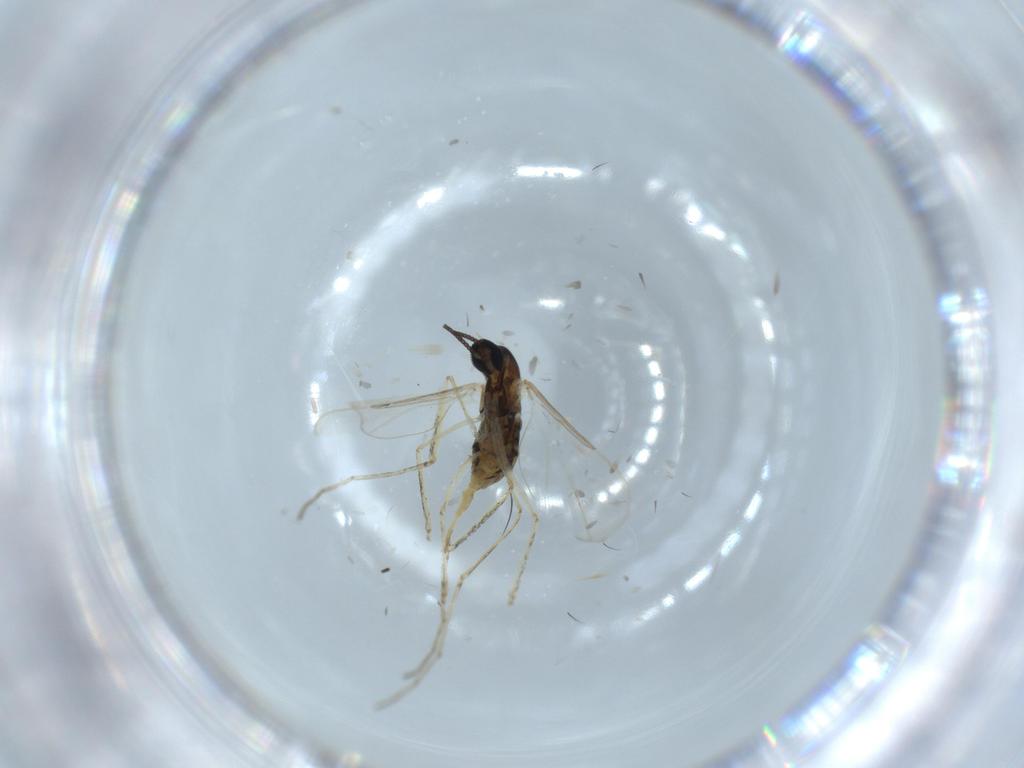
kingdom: Animalia
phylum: Arthropoda
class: Insecta
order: Diptera
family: Cecidomyiidae
